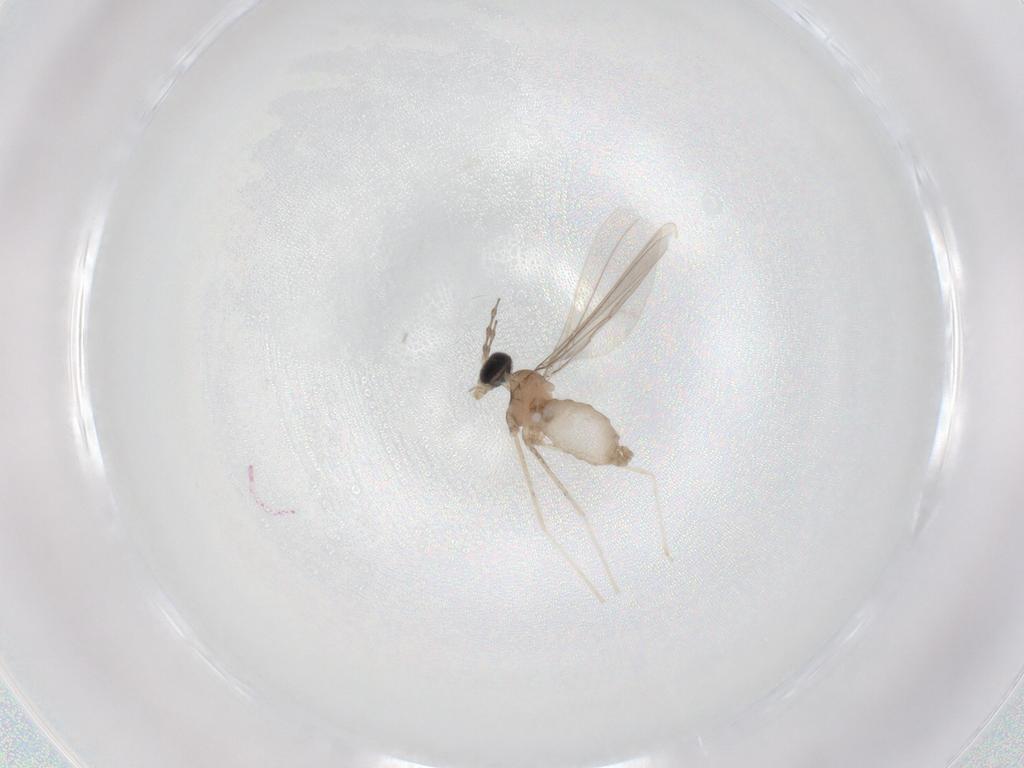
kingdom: Animalia
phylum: Arthropoda
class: Insecta
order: Diptera
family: Cecidomyiidae
